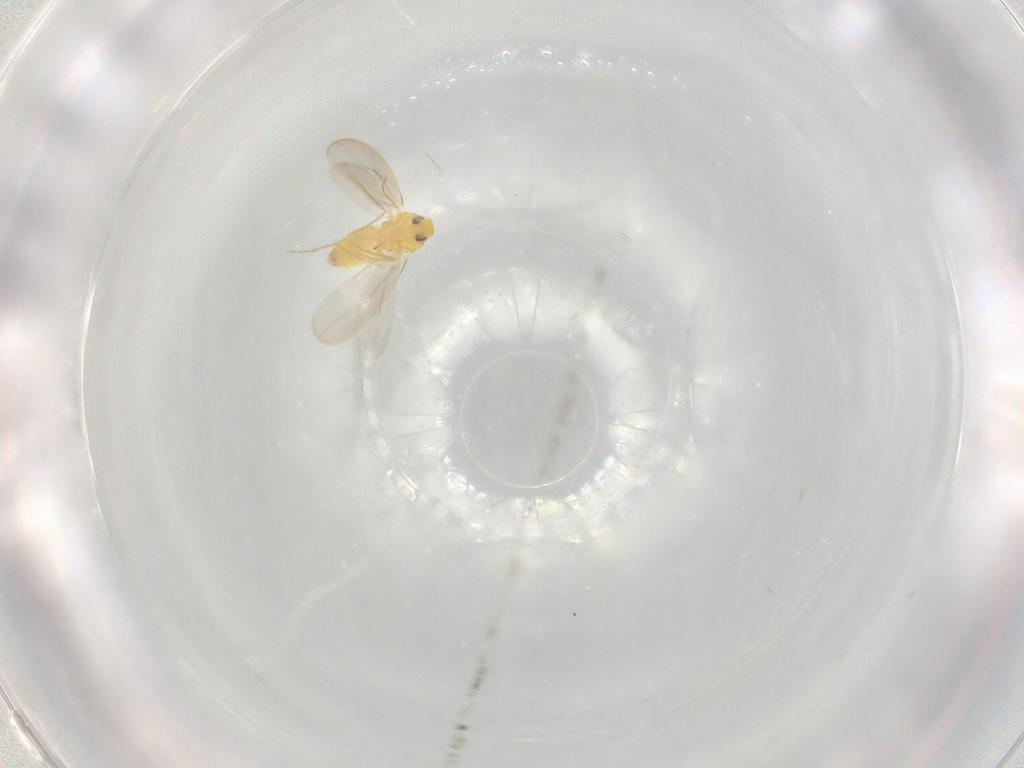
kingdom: Animalia
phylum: Arthropoda
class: Insecta
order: Hemiptera
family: Cicadellidae
